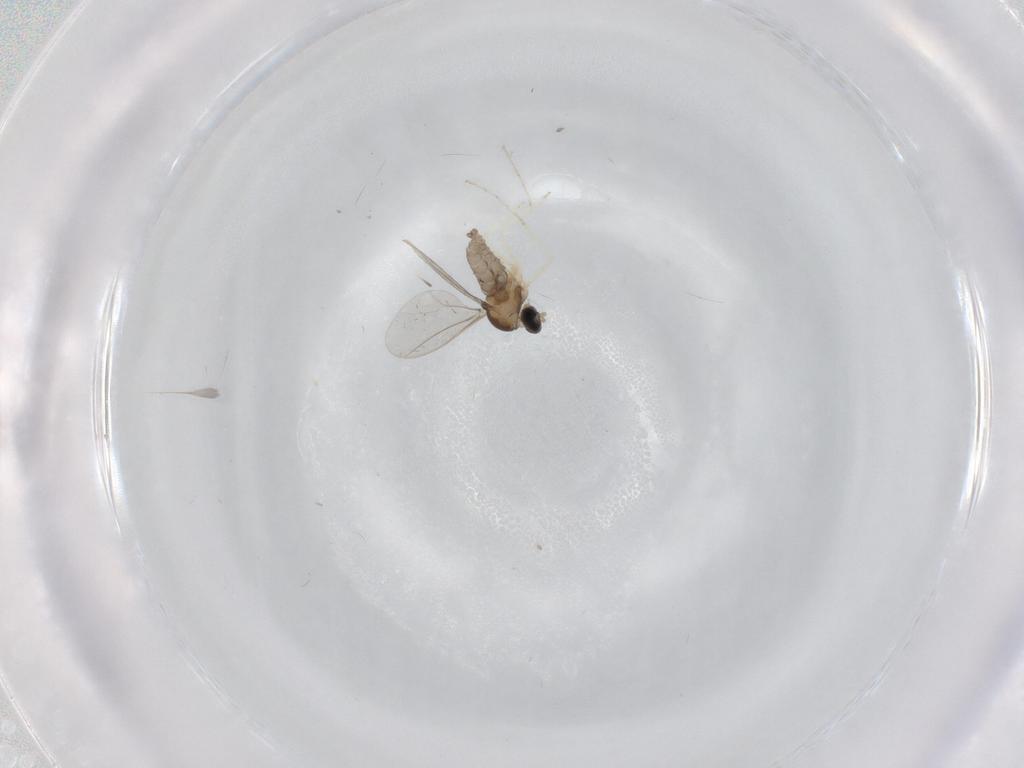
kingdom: Animalia
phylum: Arthropoda
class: Insecta
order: Diptera
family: Cecidomyiidae
